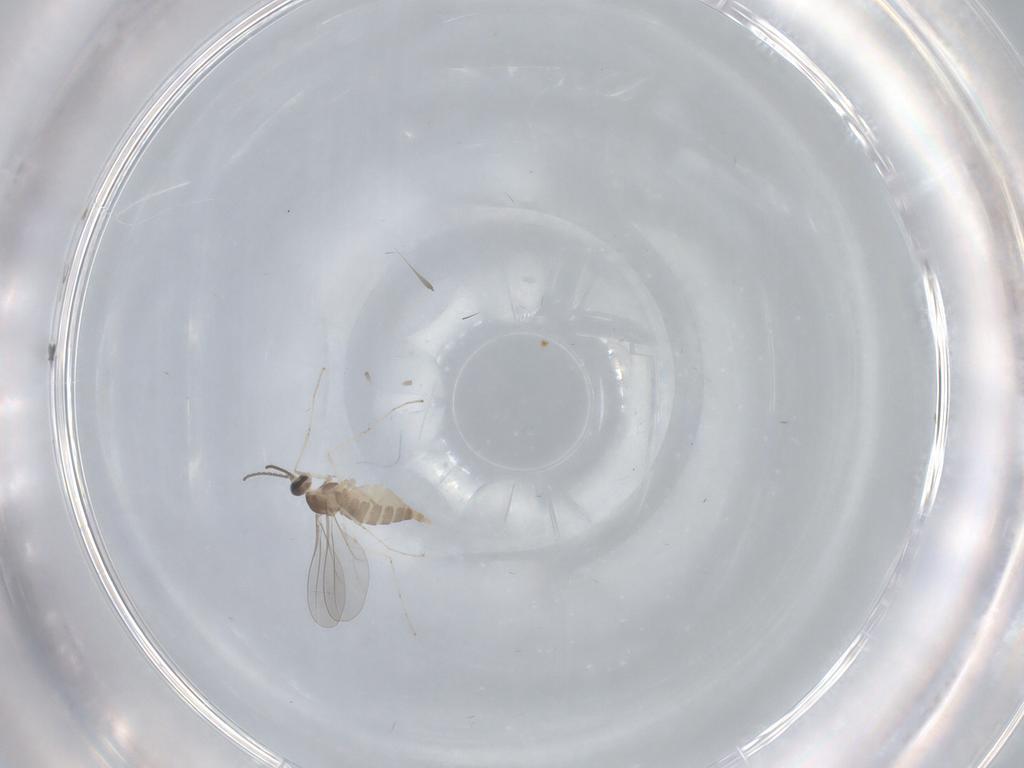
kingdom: Animalia
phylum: Arthropoda
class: Insecta
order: Diptera
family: Cecidomyiidae
